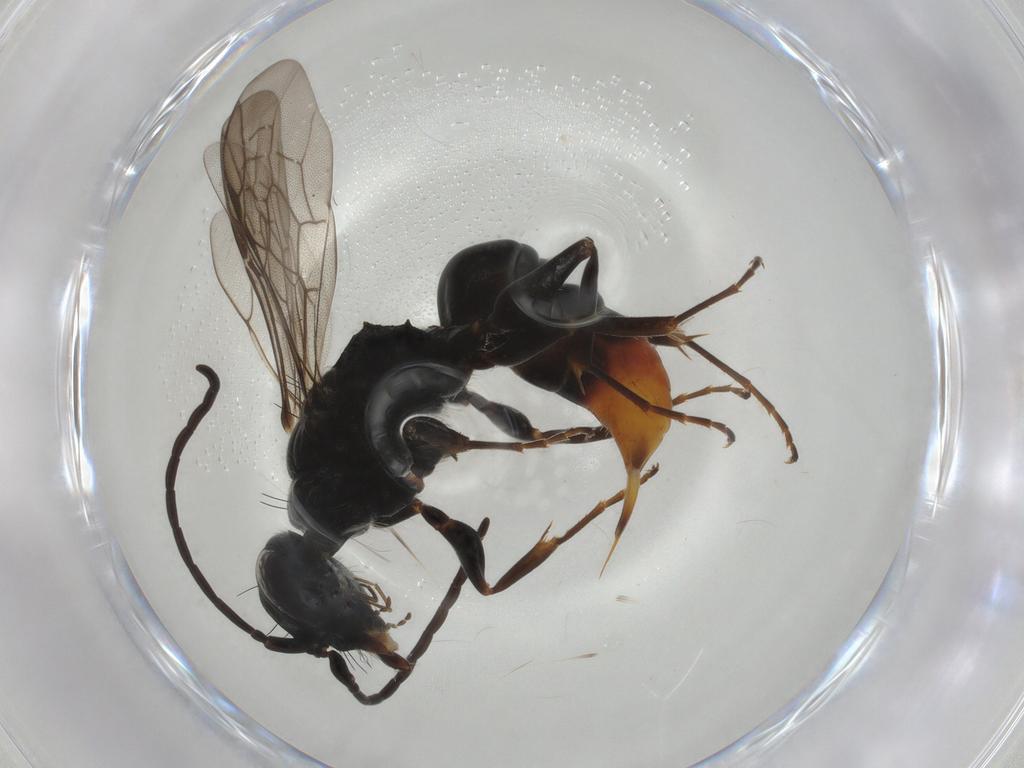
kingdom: Animalia
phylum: Arthropoda
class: Insecta
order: Hymenoptera
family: Ampulicidae
